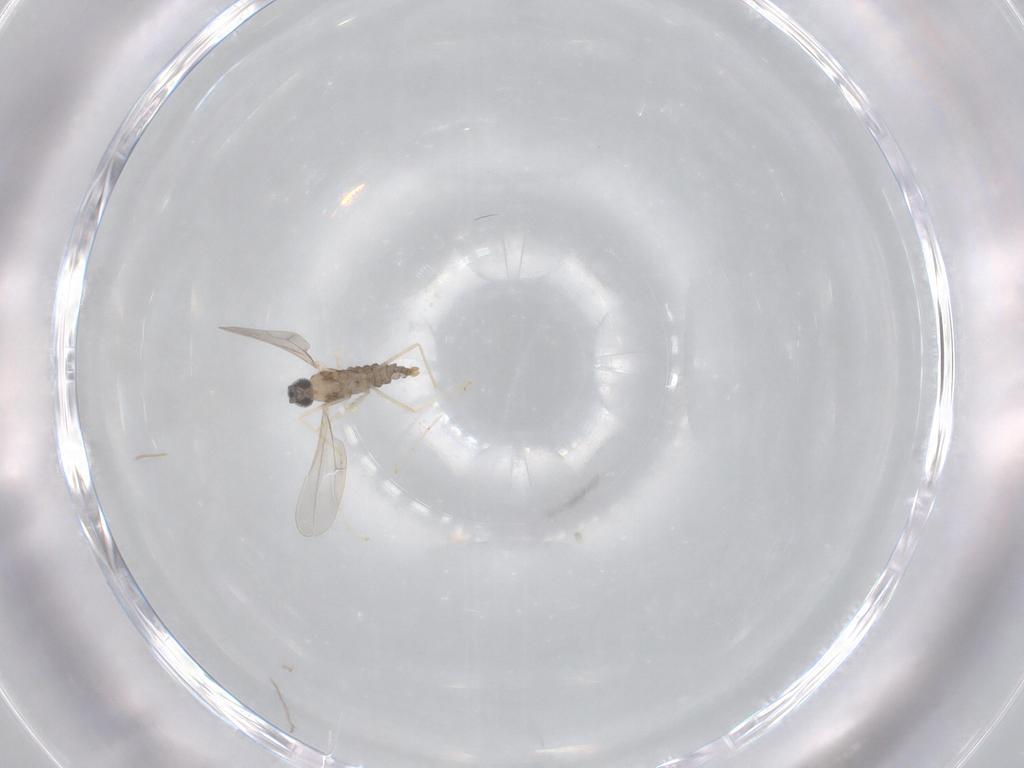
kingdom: Animalia
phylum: Arthropoda
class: Insecta
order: Diptera
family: Cecidomyiidae
